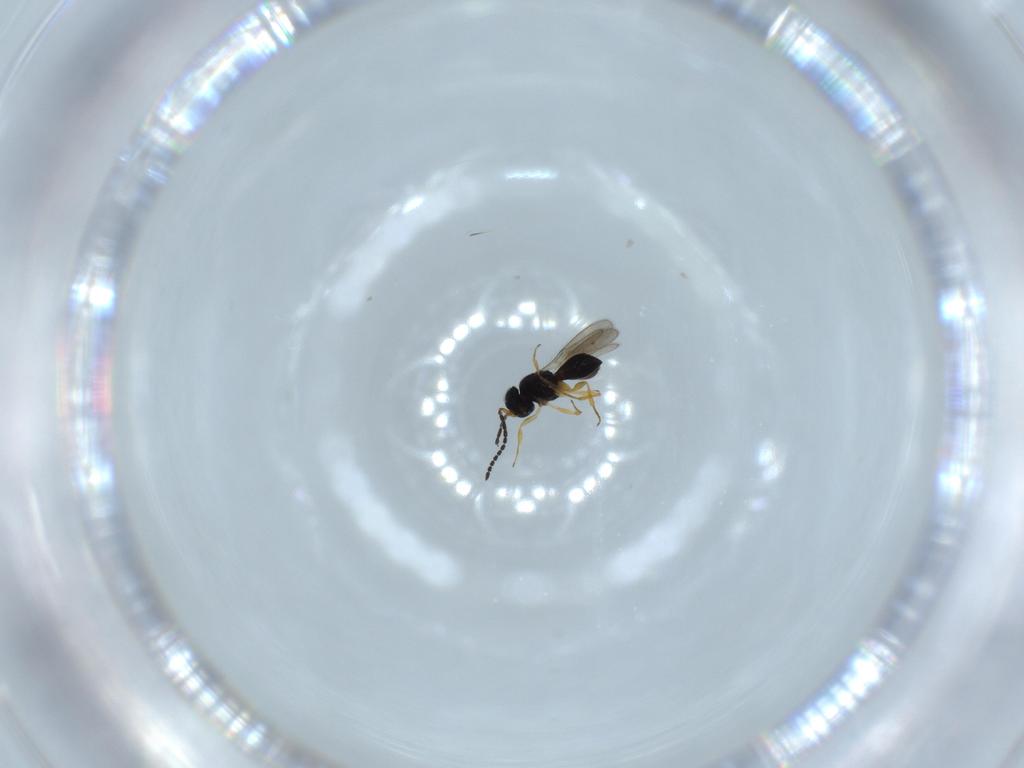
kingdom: Animalia
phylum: Arthropoda
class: Insecta
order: Hymenoptera
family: Scelionidae
